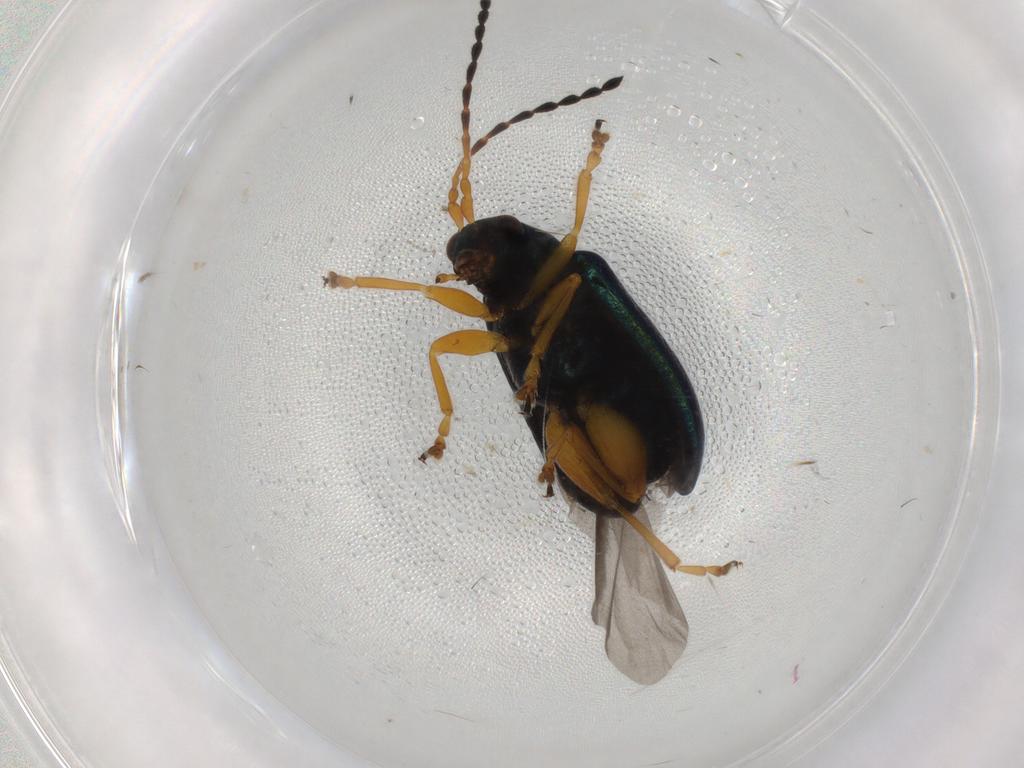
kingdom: Animalia
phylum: Arthropoda
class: Insecta
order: Coleoptera
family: Chrysomelidae
